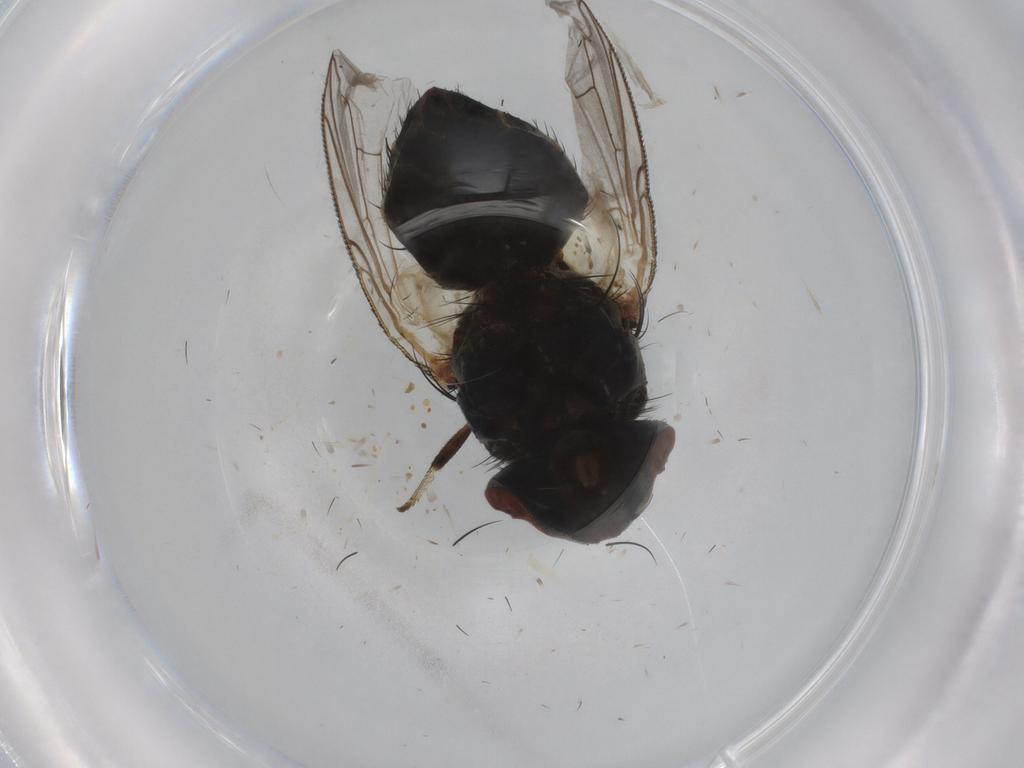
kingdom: Animalia
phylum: Arthropoda
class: Insecta
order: Diptera
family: Sarcophagidae
